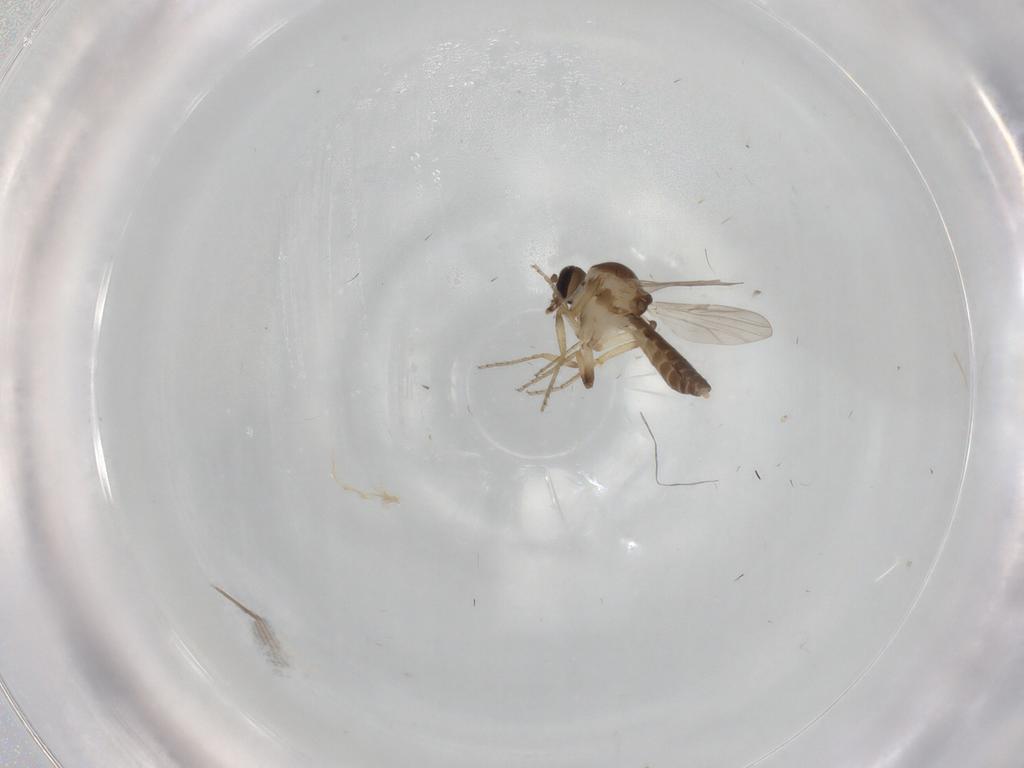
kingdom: Animalia
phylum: Arthropoda
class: Insecta
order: Diptera
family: Ceratopogonidae
